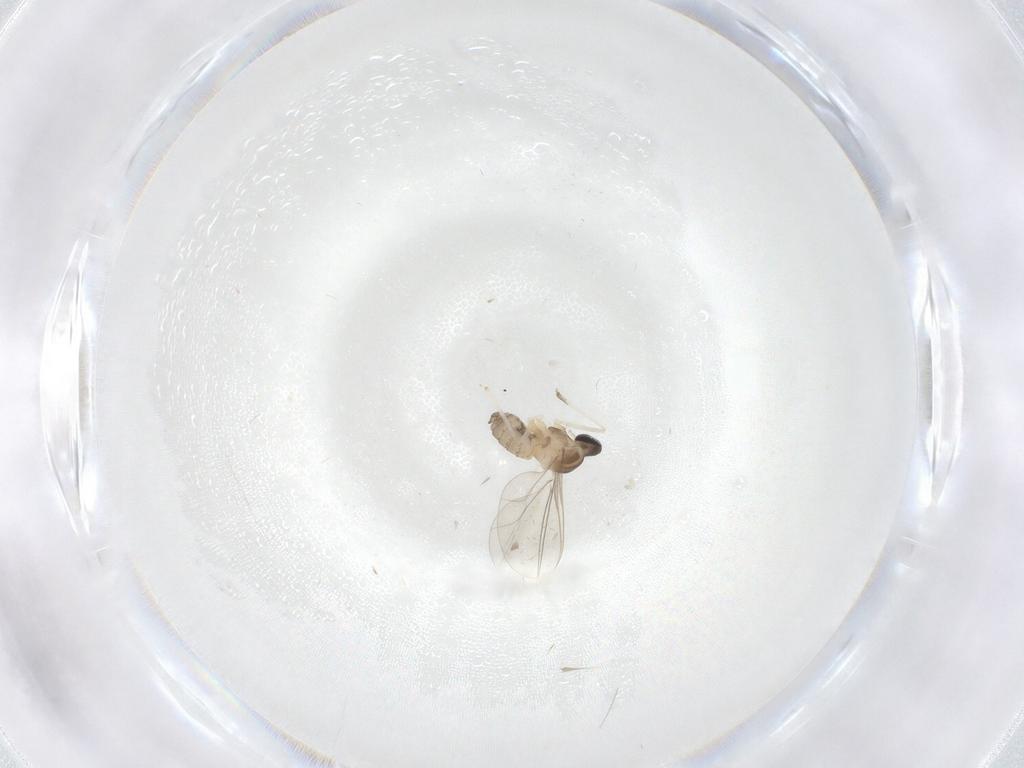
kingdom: Animalia
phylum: Arthropoda
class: Insecta
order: Diptera
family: Cecidomyiidae
